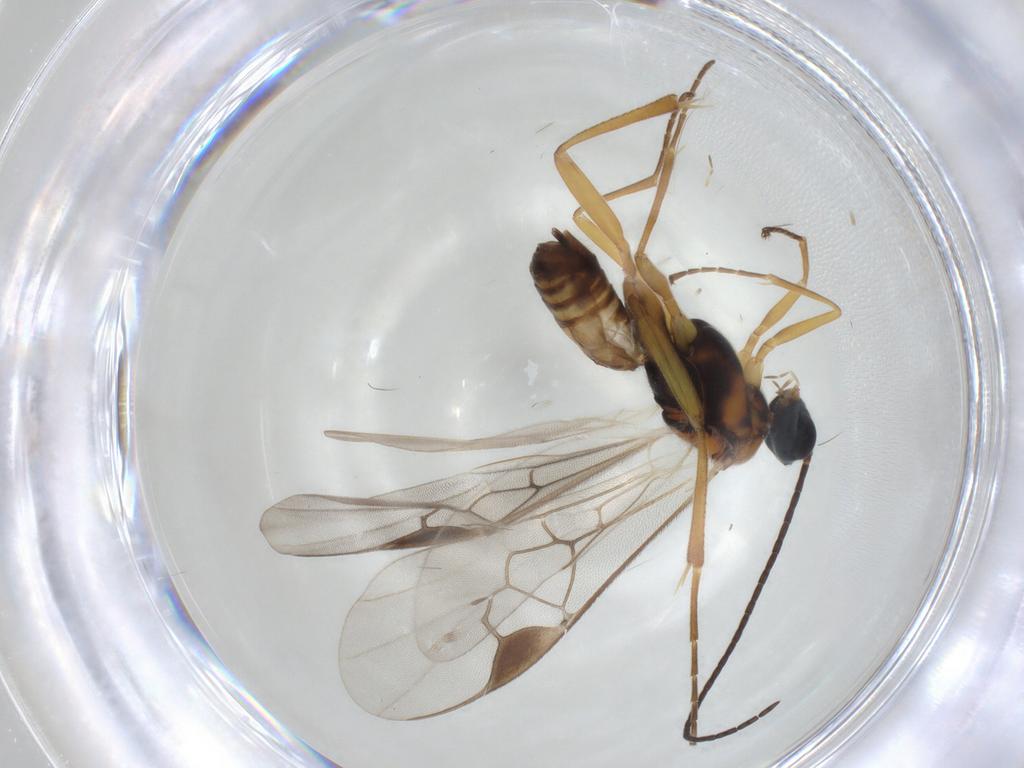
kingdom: Animalia
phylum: Arthropoda
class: Insecta
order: Hymenoptera
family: Braconidae
